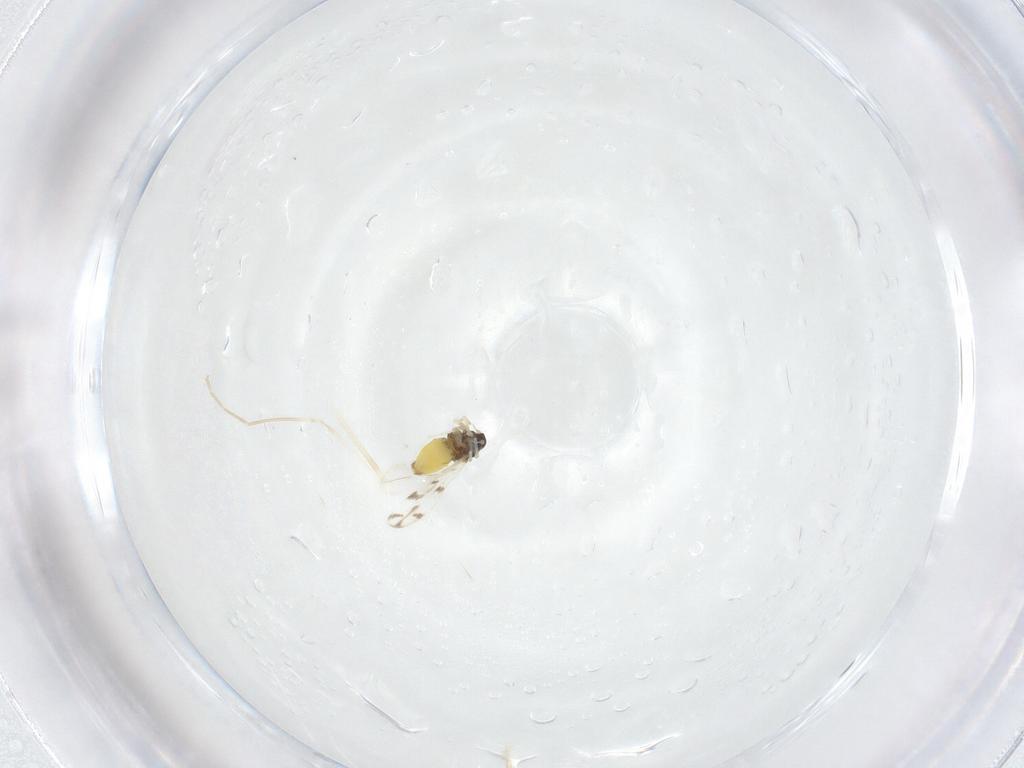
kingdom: Animalia
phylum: Arthropoda
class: Insecta
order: Hemiptera
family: Aleyrodidae
